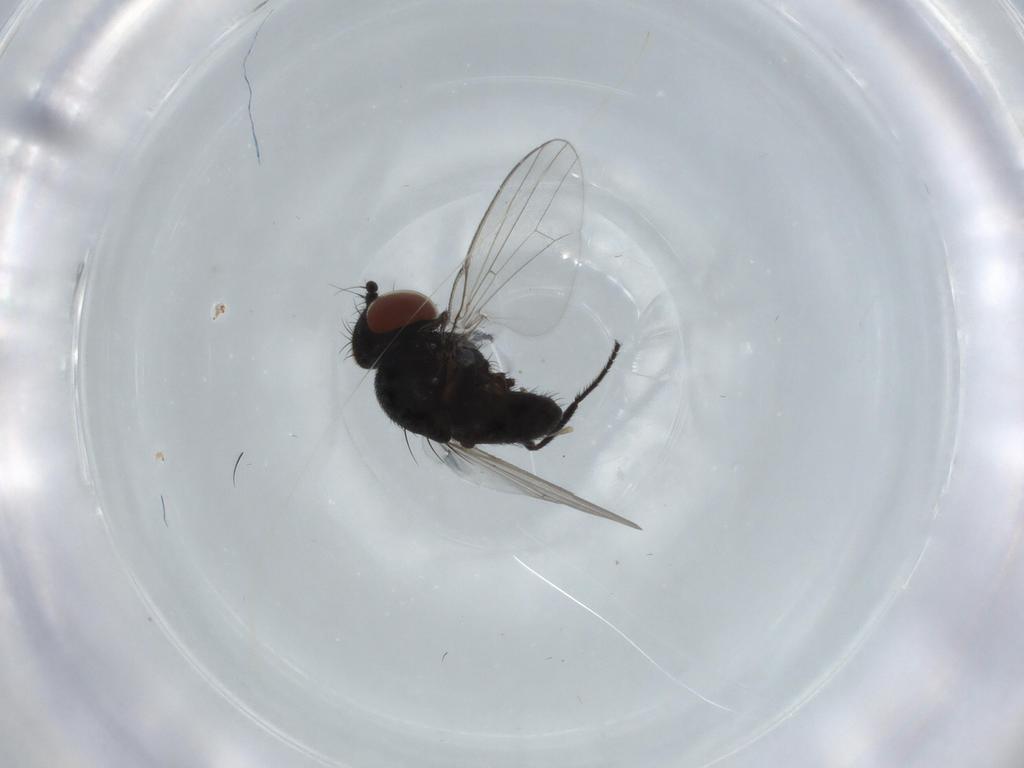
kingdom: Animalia
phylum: Arthropoda
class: Insecta
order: Diptera
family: Milichiidae
